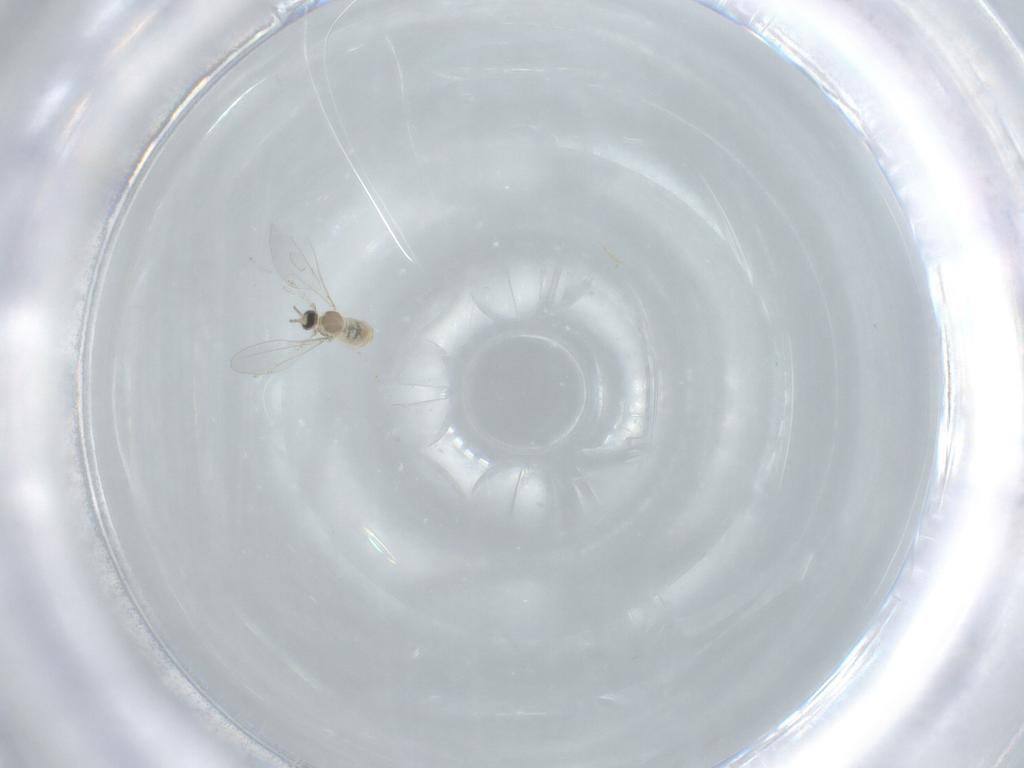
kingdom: Animalia
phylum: Arthropoda
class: Insecta
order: Diptera
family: Cecidomyiidae
